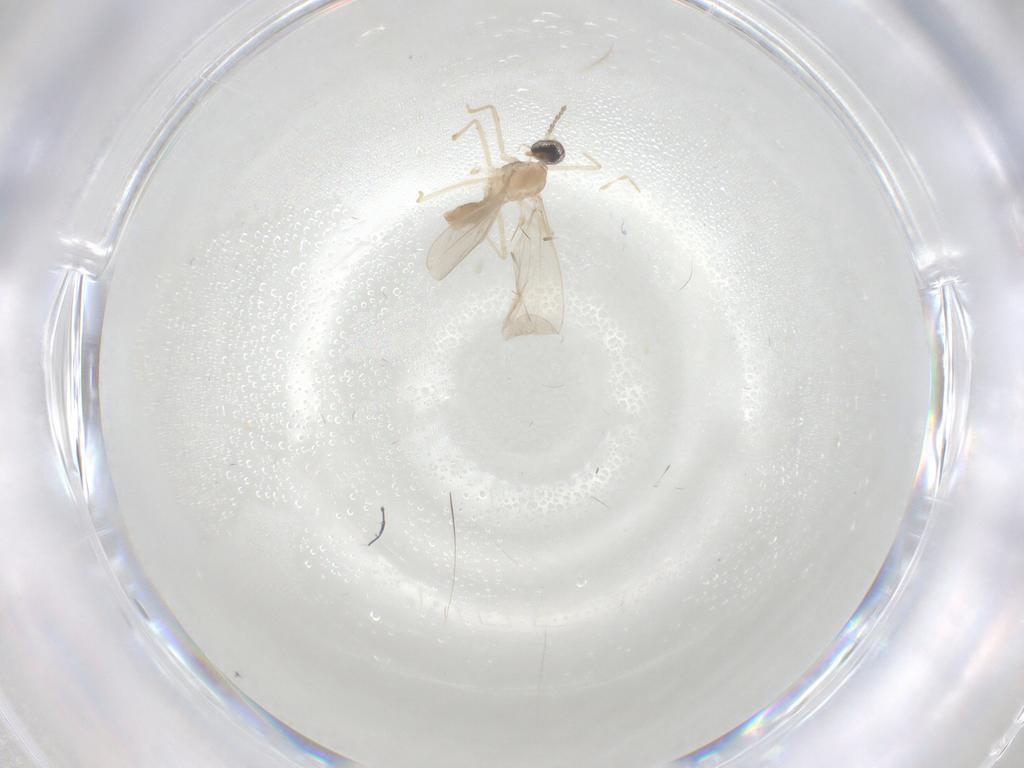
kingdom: Animalia
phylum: Arthropoda
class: Insecta
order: Diptera
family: Cecidomyiidae
